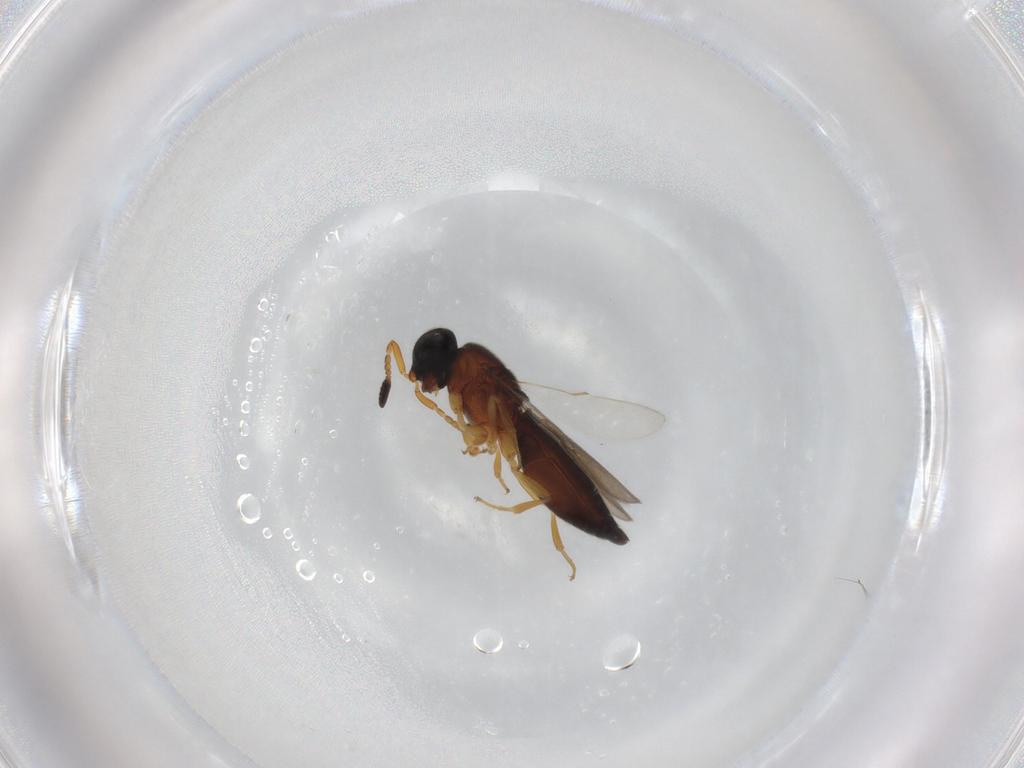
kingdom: Animalia
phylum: Arthropoda
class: Insecta
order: Hymenoptera
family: Scelionidae
